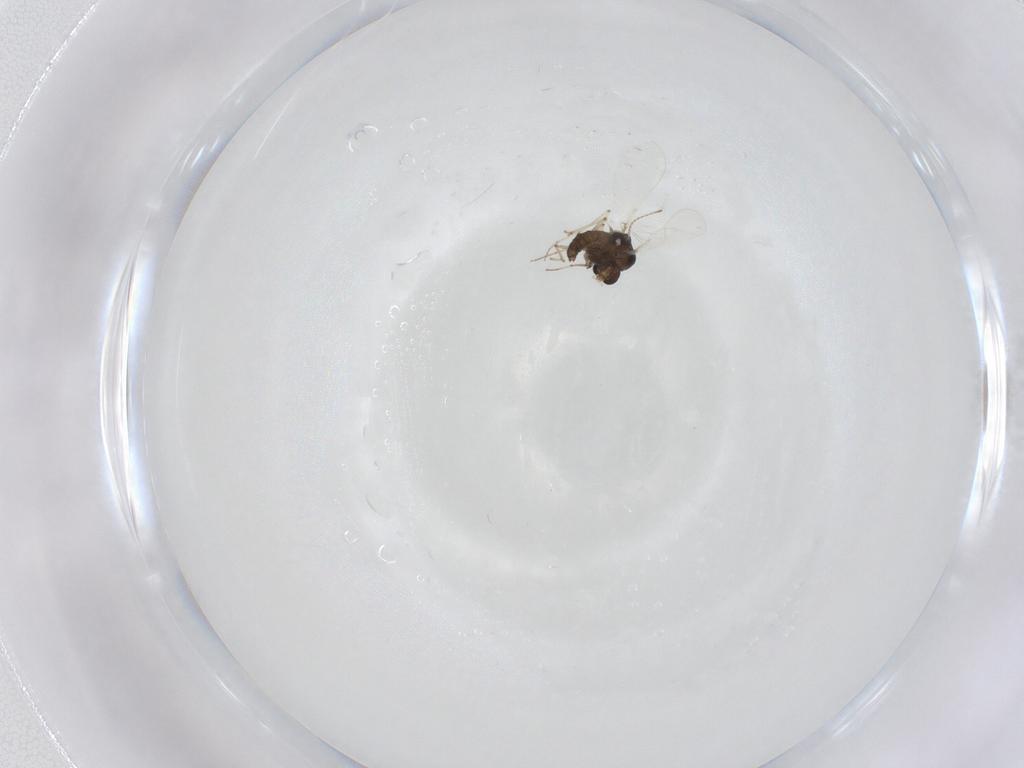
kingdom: Animalia
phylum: Arthropoda
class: Insecta
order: Diptera
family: Chironomidae
